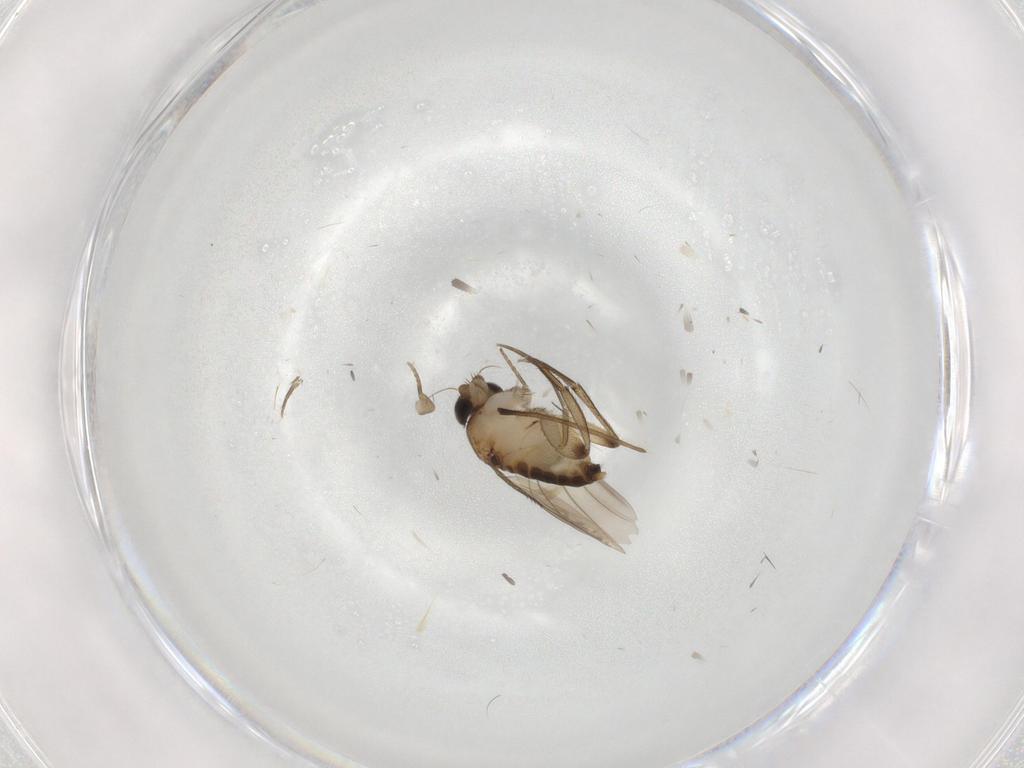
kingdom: Animalia
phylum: Arthropoda
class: Insecta
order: Diptera
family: Phoridae
